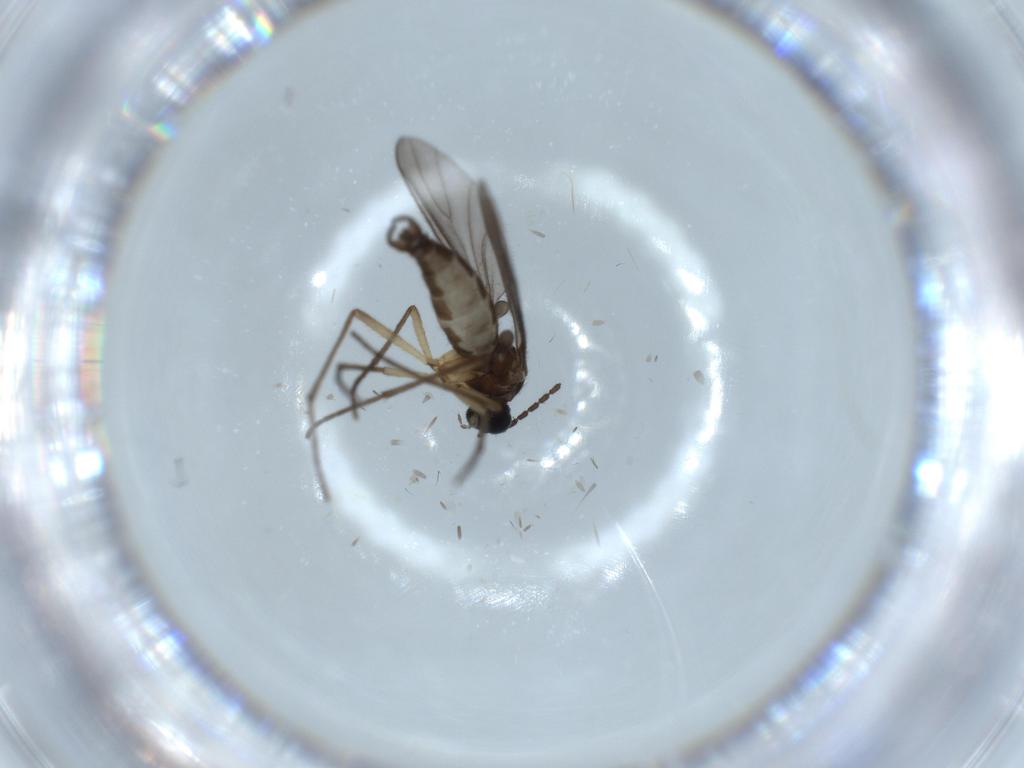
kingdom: Animalia
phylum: Arthropoda
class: Insecta
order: Diptera
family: Sciaridae
